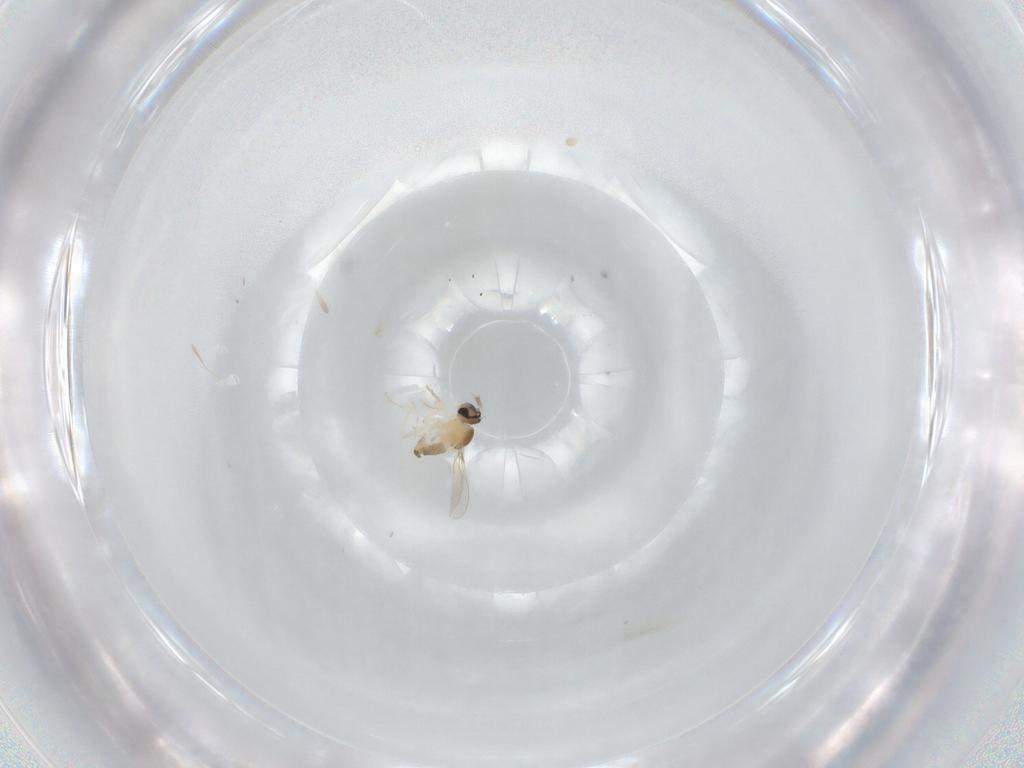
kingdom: Animalia
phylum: Arthropoda
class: Insecta
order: Diptera
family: Cecidomyiidae
